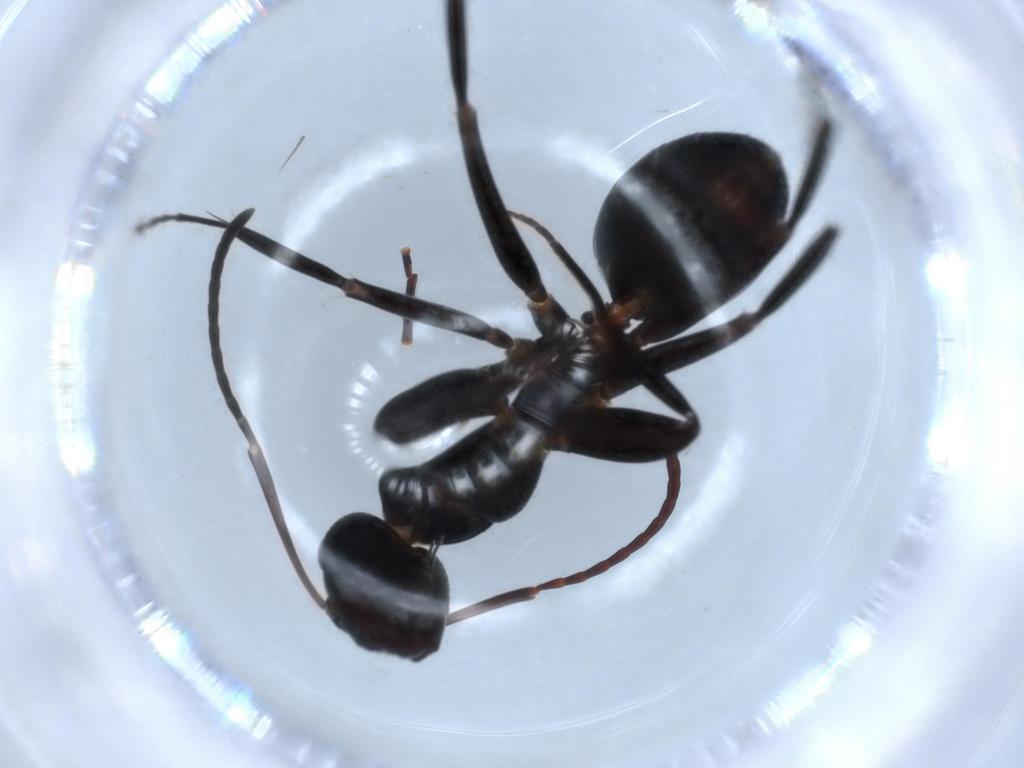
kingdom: Animalia
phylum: Arthropoda
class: Insecta
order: Hymenoptera
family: Formicidae
